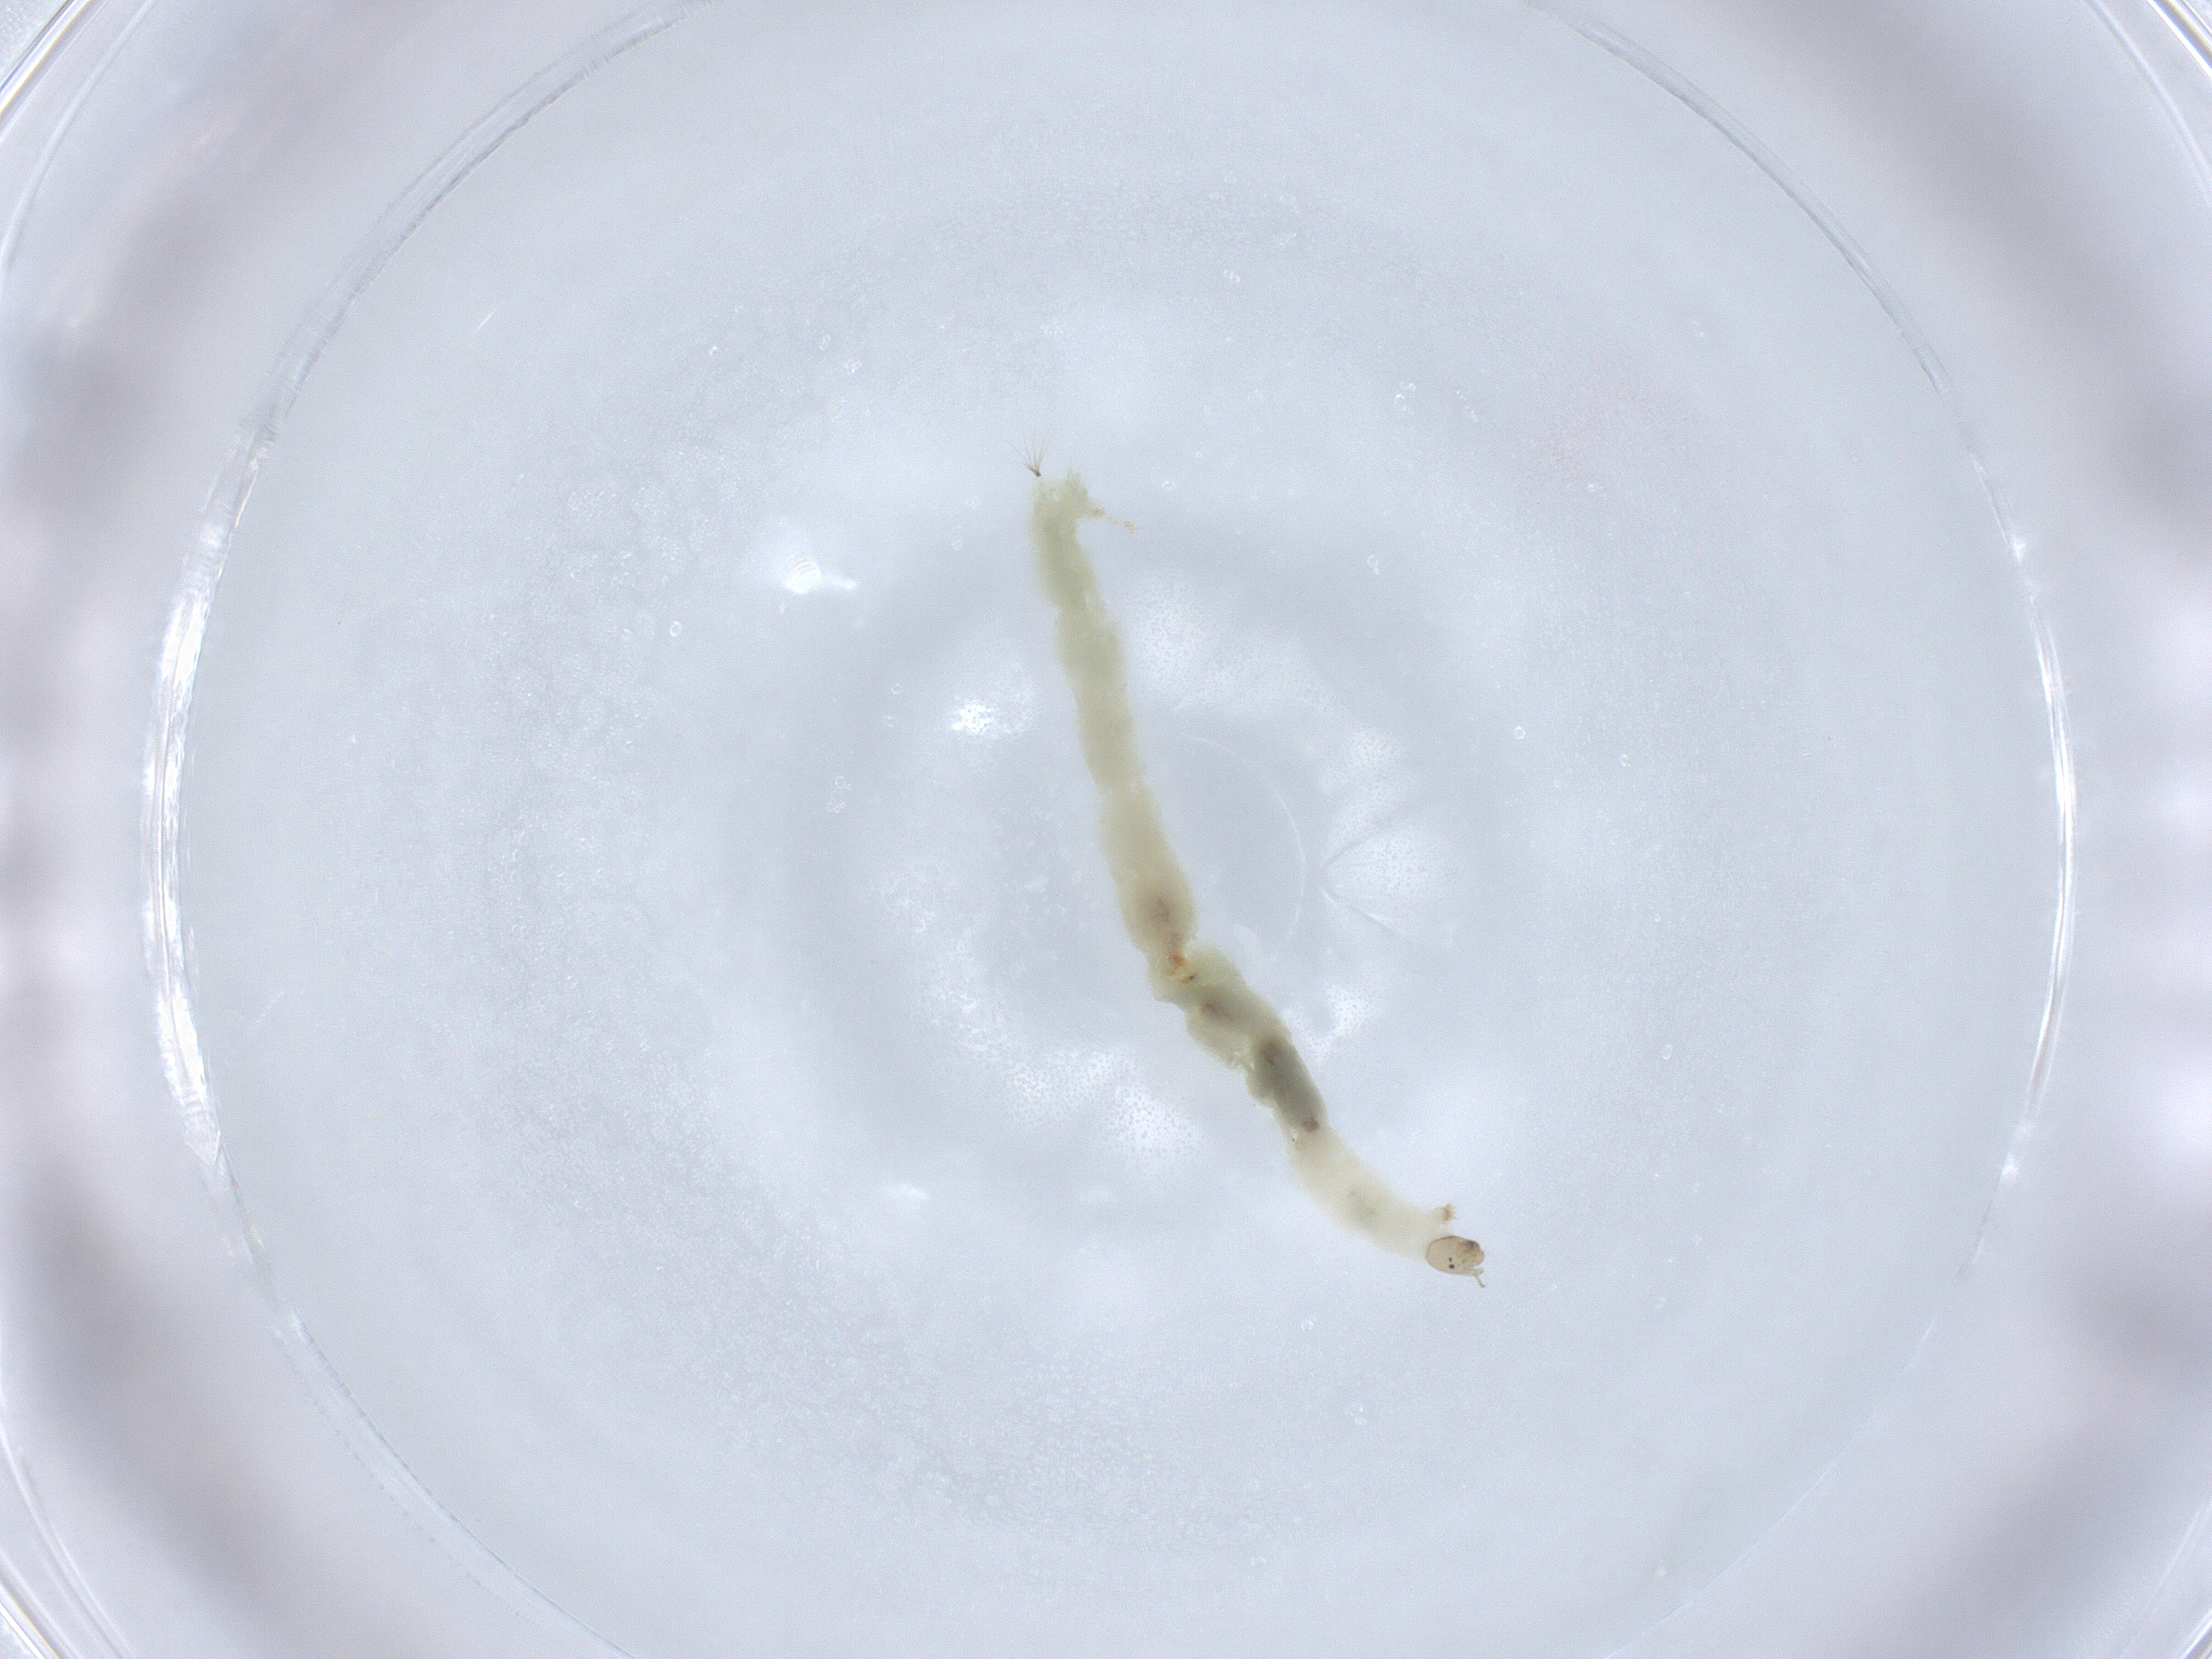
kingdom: Animalia
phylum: Arthropoda
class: Insecta
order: Diptera
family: Chironomidae
